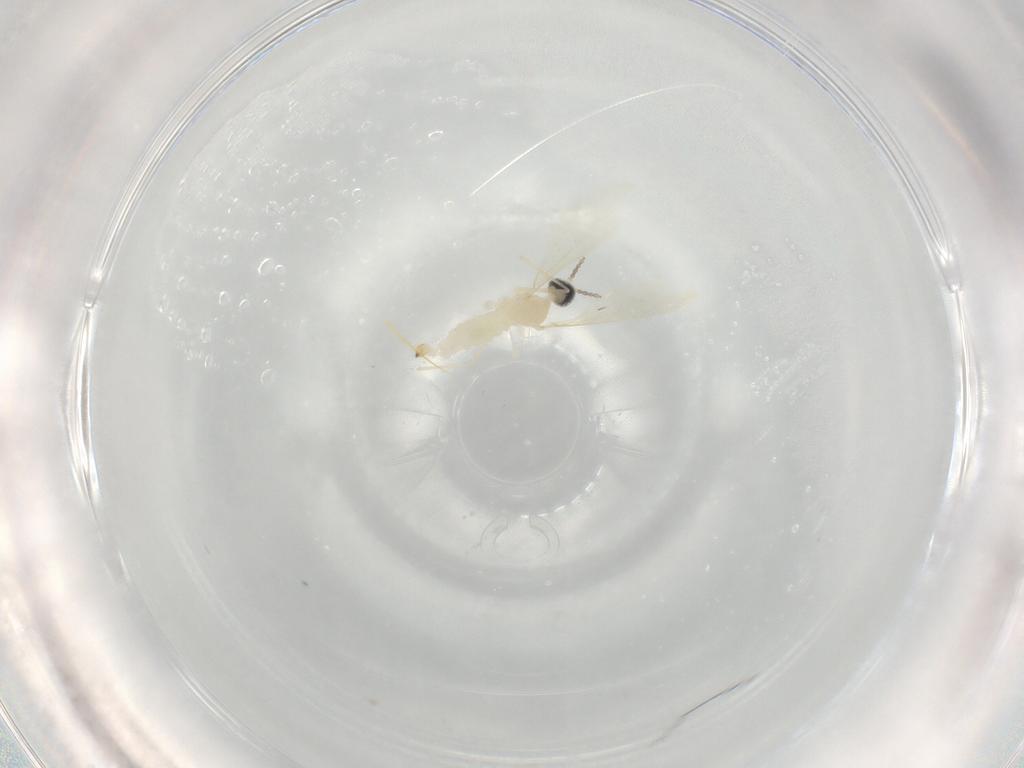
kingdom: Animalia
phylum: Arthropoda
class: Insecta
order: Diptera
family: Cecidomyiidae
